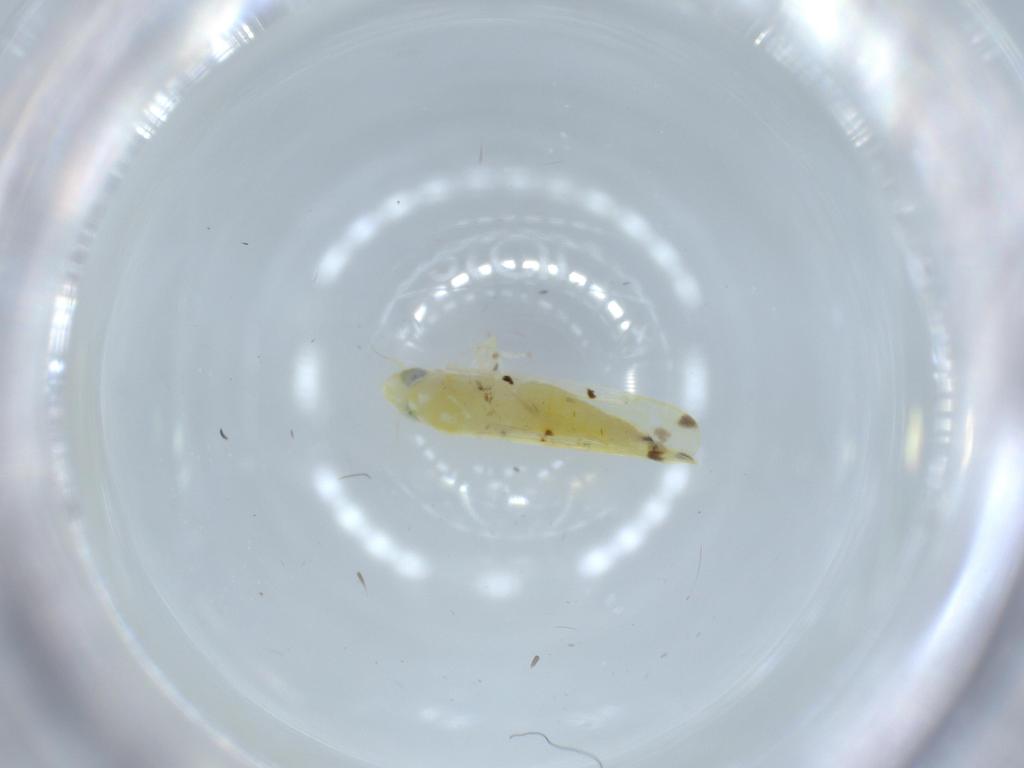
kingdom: Animalia
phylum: Arthropoda
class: Insecta
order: Hemiptera
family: Cicadellidae
